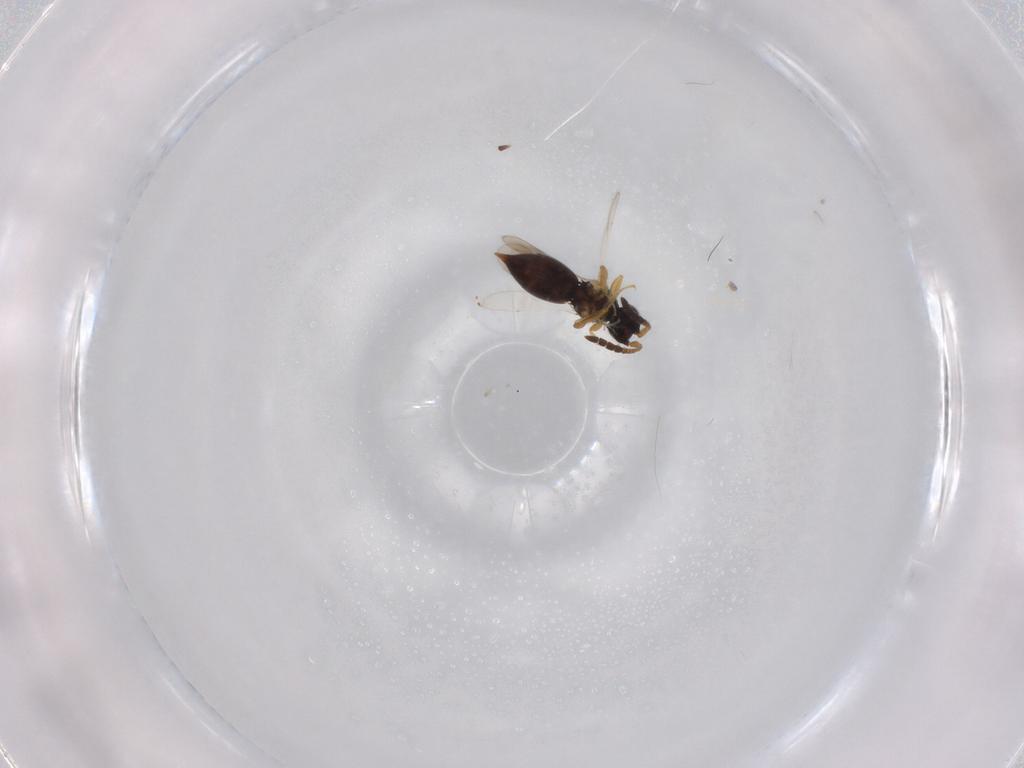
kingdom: Animalia
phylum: Arthropoda
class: Insecta
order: Hymenoptera
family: Ceraphronidae
